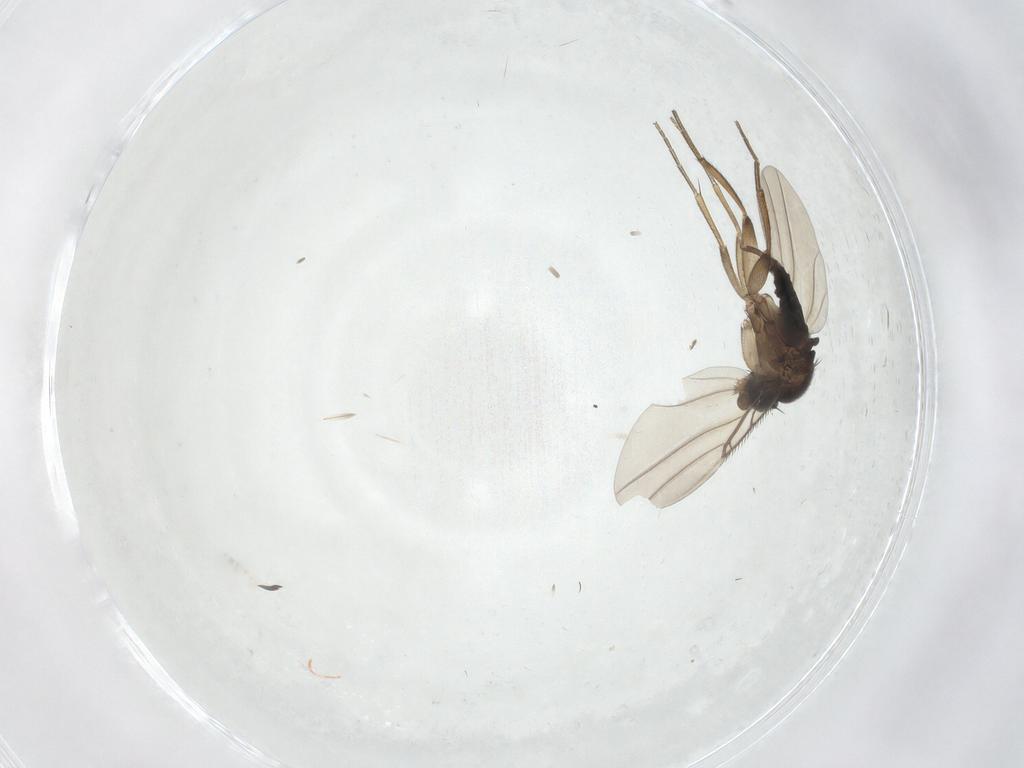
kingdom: Animalia
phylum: Arthropoda
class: Insecta
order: Diptera
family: Phoridae
